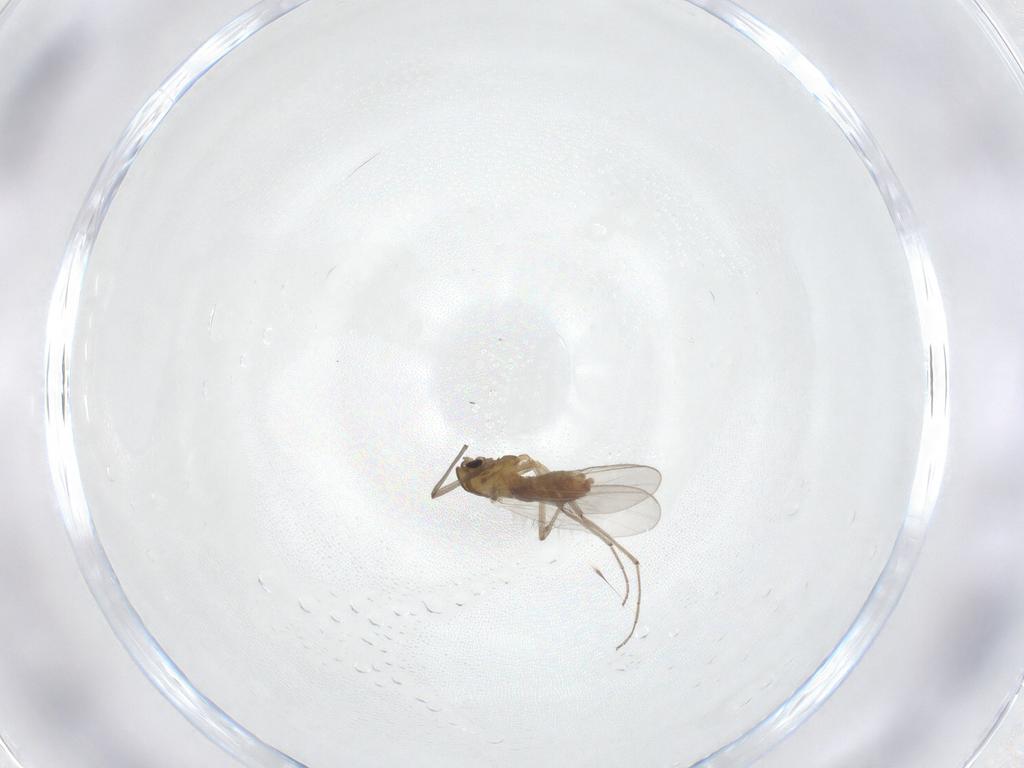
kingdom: Animalia
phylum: Arthropoda
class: Insecta
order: Diptera
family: Chironomidae
